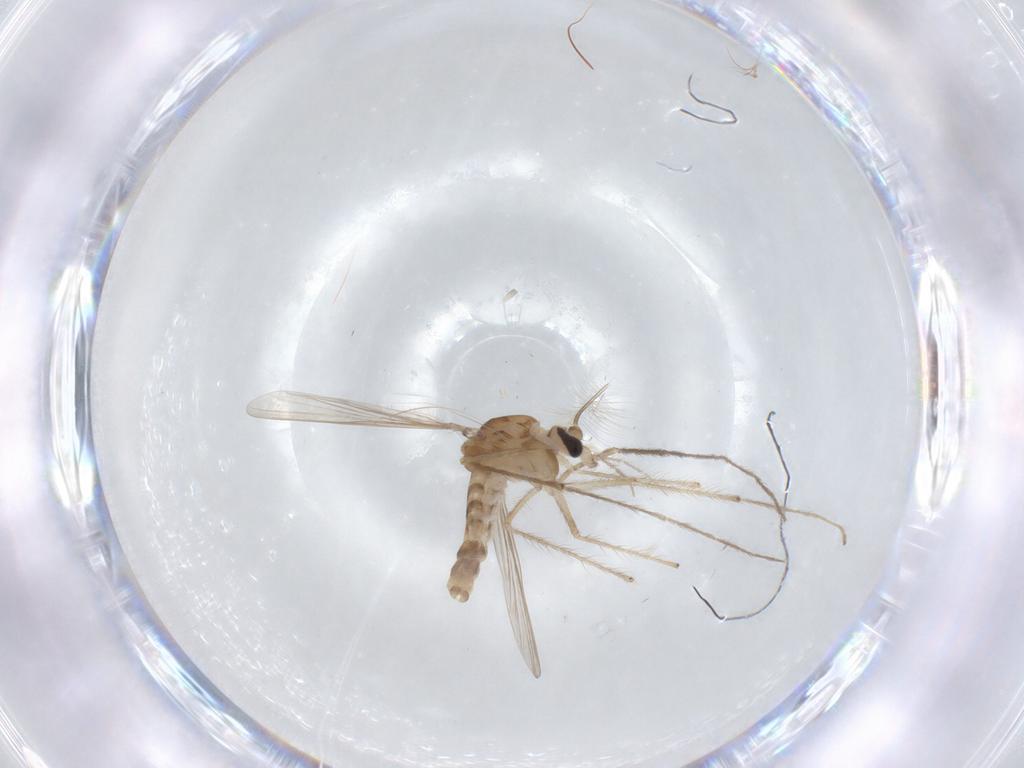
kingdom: Animalia
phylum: Arthropoda
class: Insecta
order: Diptera
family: Chironomidae
